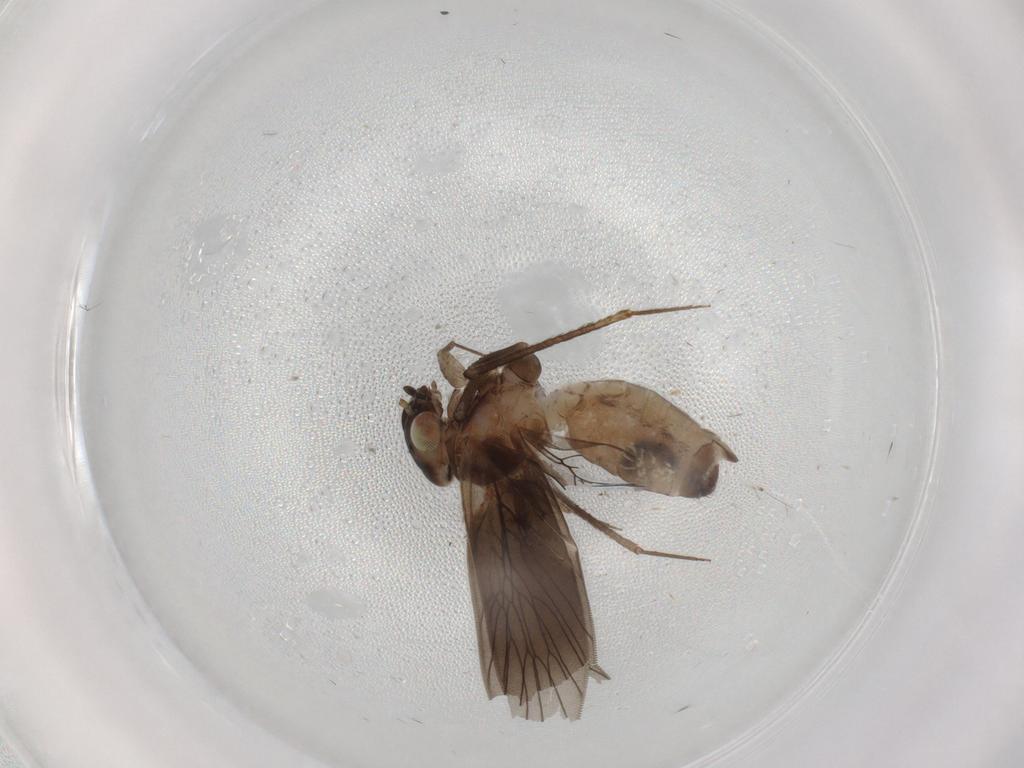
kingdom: Animalia
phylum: Arthropoda
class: Insecta
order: Psocodea
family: Lepidopsocidae
